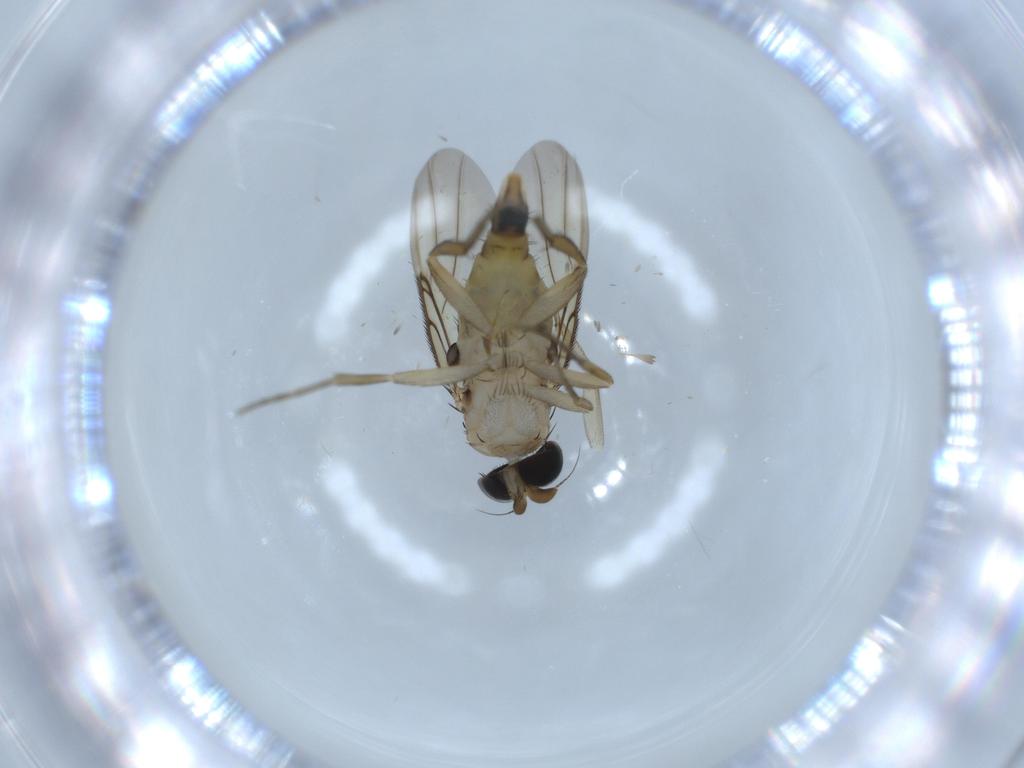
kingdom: Animalia
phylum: Arthropoda
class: Insecta
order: Diptera
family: Phoridae
